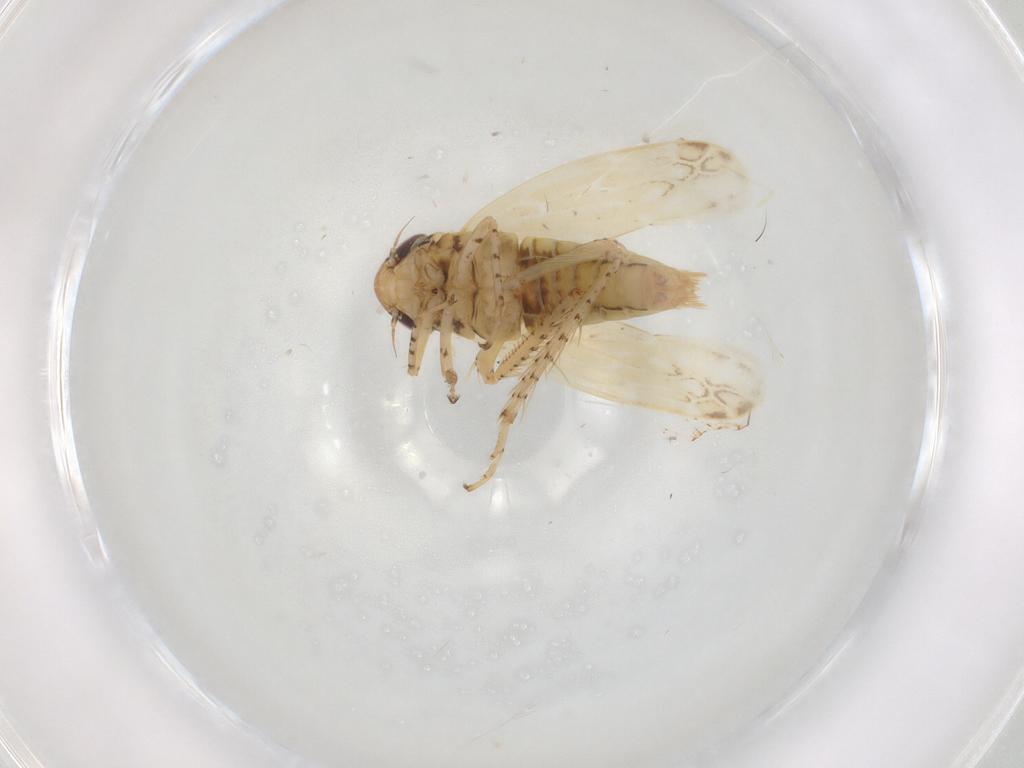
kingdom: Animalia
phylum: Arthropoda
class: Insecta
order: Hemiptera
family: Cicadellidae
